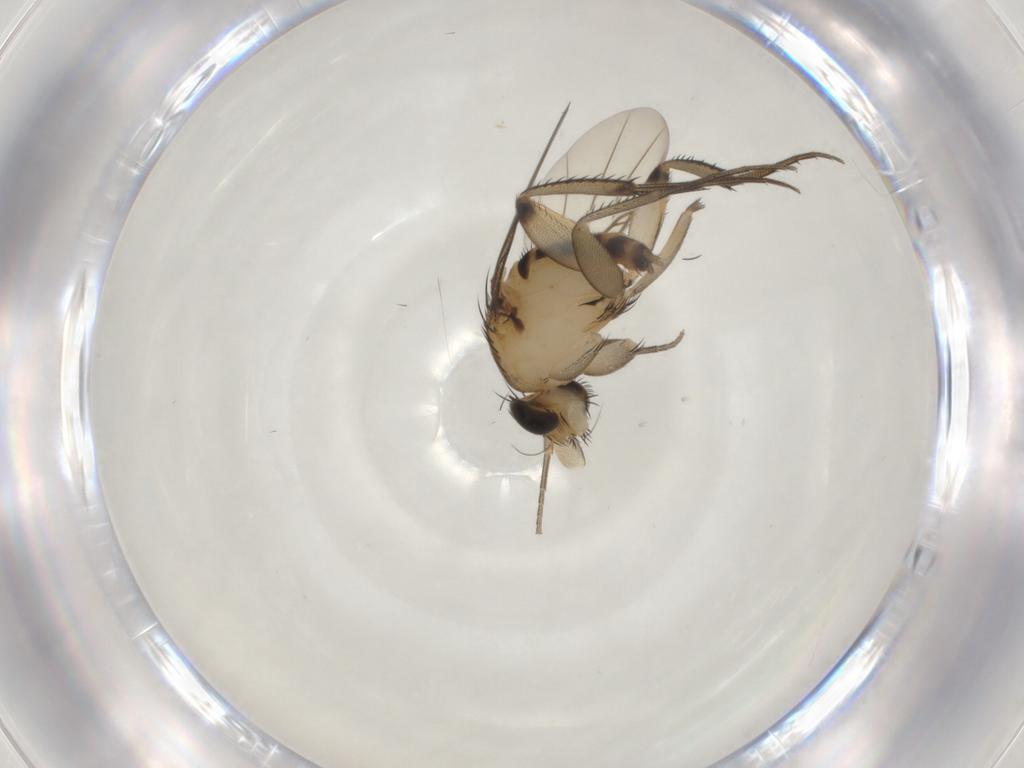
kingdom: Animalia
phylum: Arthropoda
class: Insecta
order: Diptera
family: Phoridae
